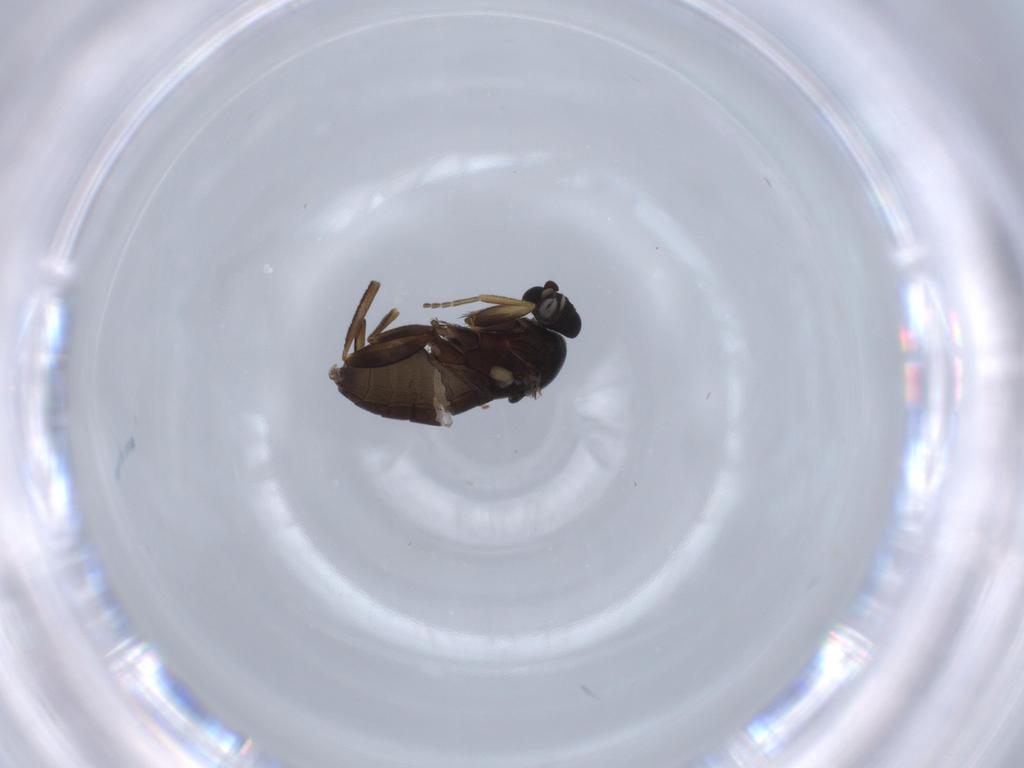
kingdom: Animalia
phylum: Arthropoda
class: Insecta
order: Diptera
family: Phoridae
